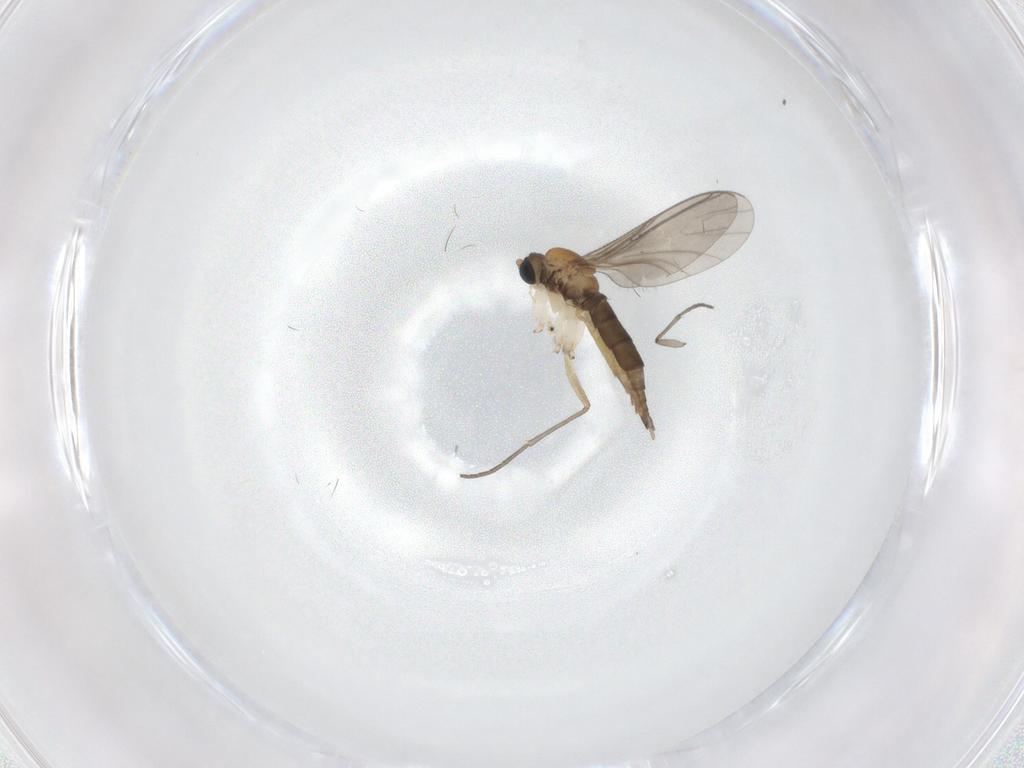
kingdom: Animalia
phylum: Arthropoda
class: Insecta
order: Diptera
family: Sciaridae
